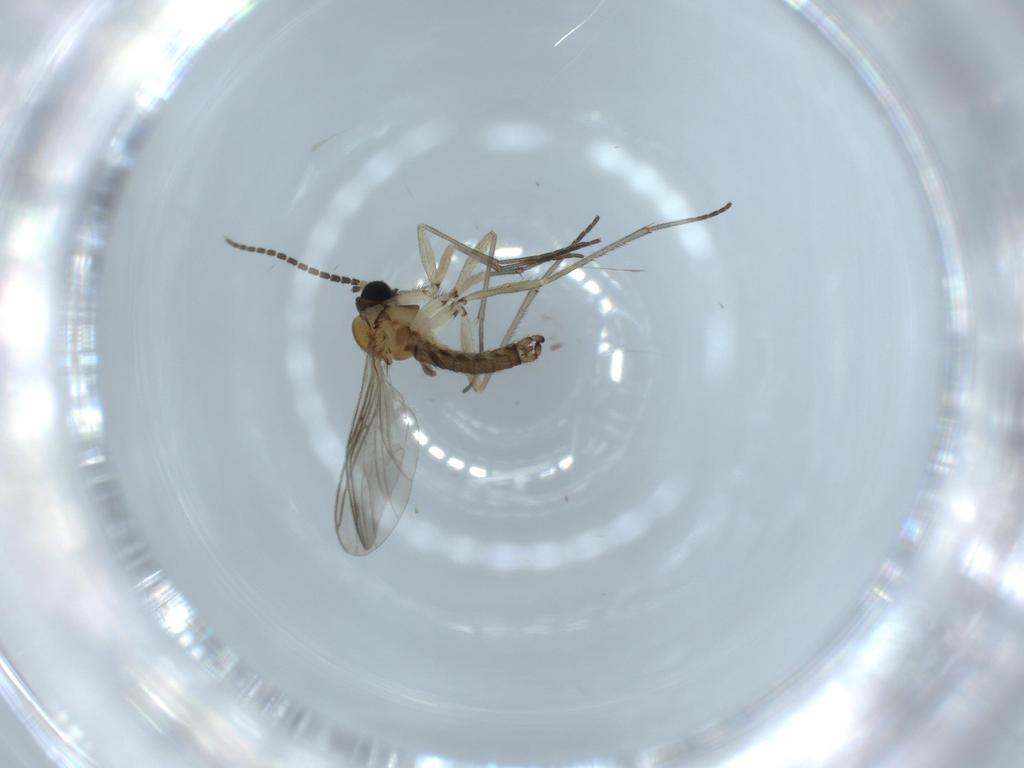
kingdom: Animalia
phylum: Arthropoda
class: Insecta
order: Diptera
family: Sciaridae
